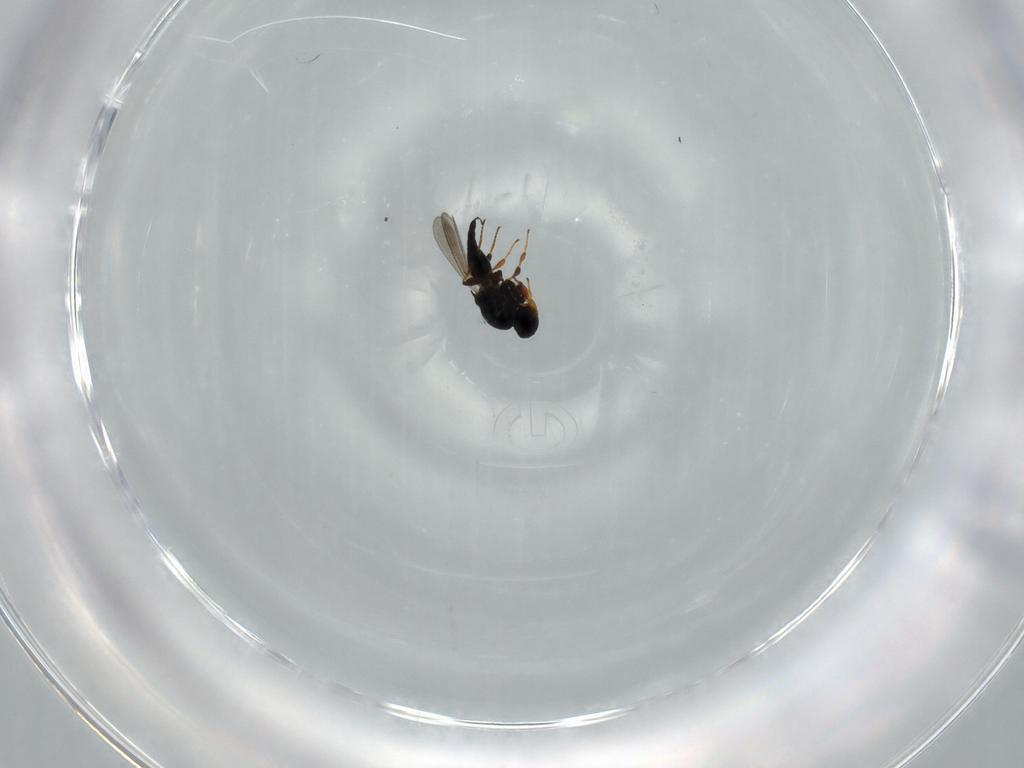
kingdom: Animalia
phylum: Arthropoda
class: Insecta
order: Hymenoptera
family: Platygastridae
